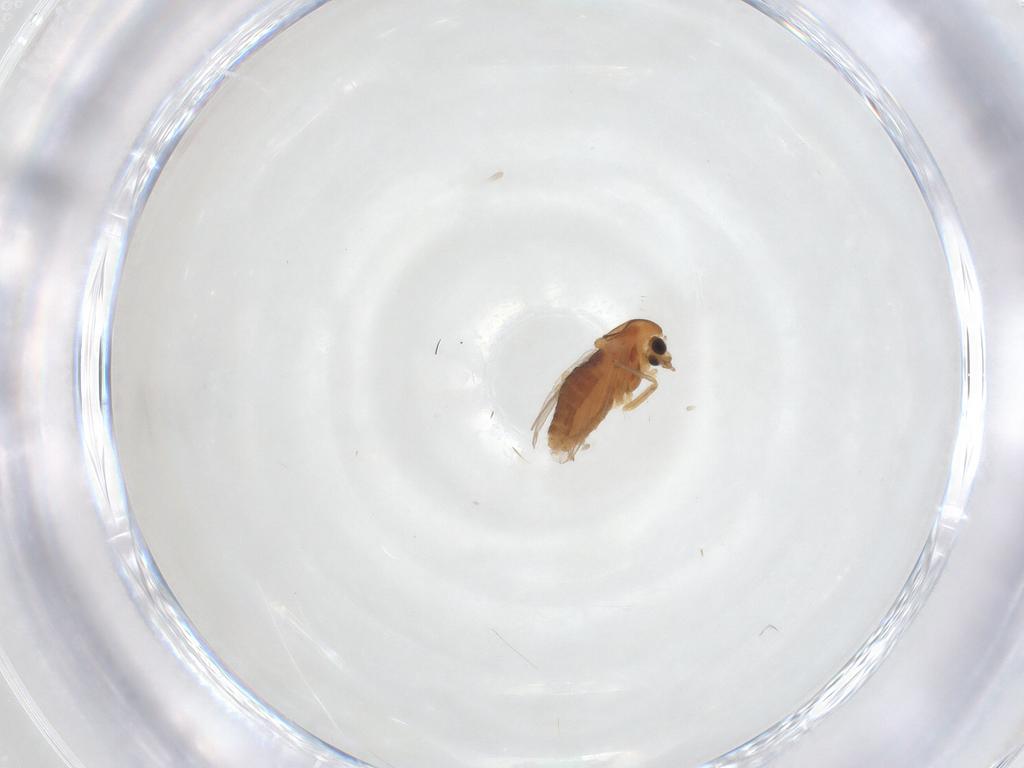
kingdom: Animalia
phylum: Arthropoda
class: Insecta
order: Diptera
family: Chironomidae
